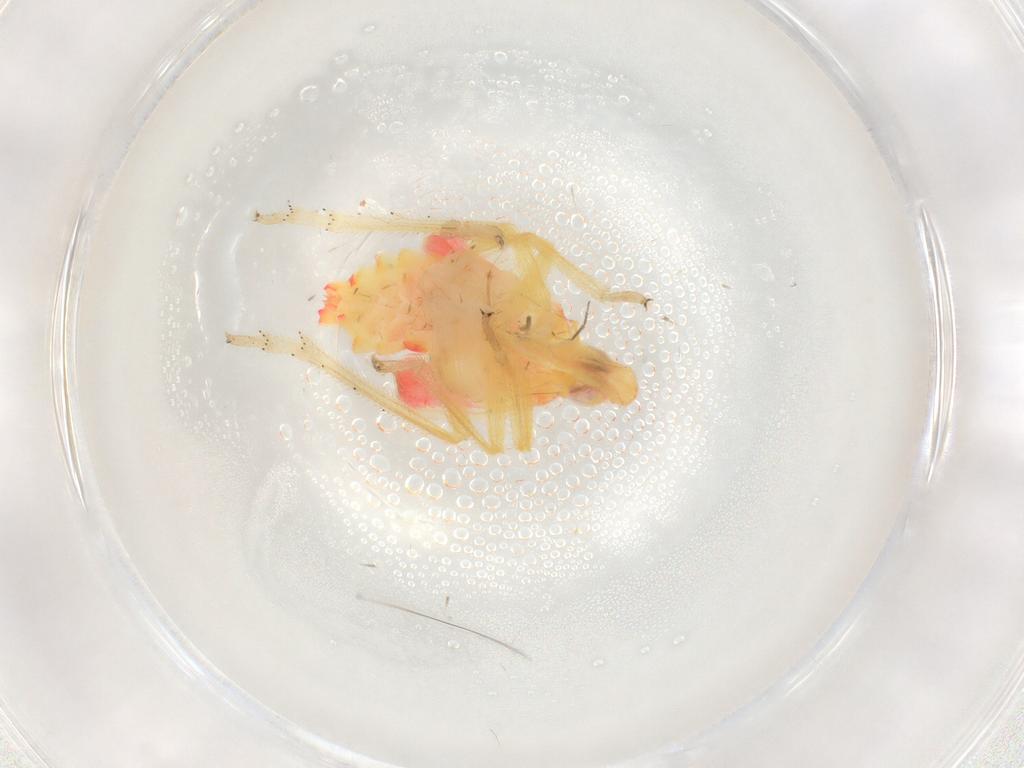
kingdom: Animalia
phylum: Arthropoda
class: Insecta
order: Hemiptera
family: Tropiduchidae
